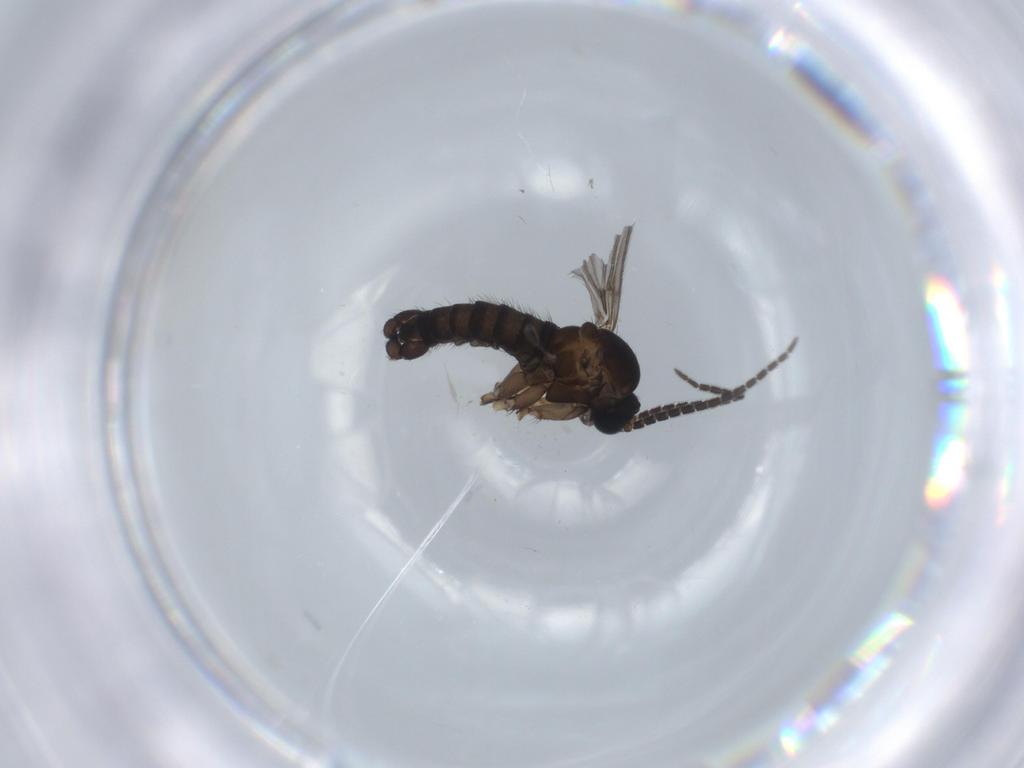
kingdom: Animalia
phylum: Arthropoda
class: Insecta
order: Diptera
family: Sciaridae
